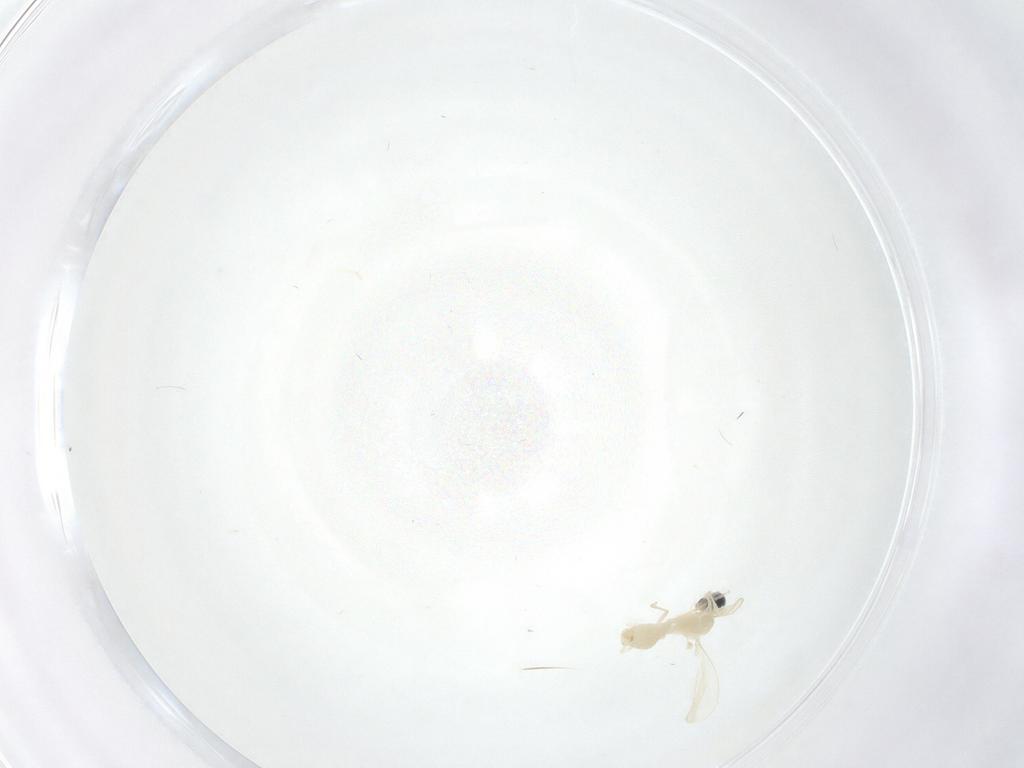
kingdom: Animalia
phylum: Arthropoda
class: Insecta
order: Diptera
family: Cecidomyiidae
